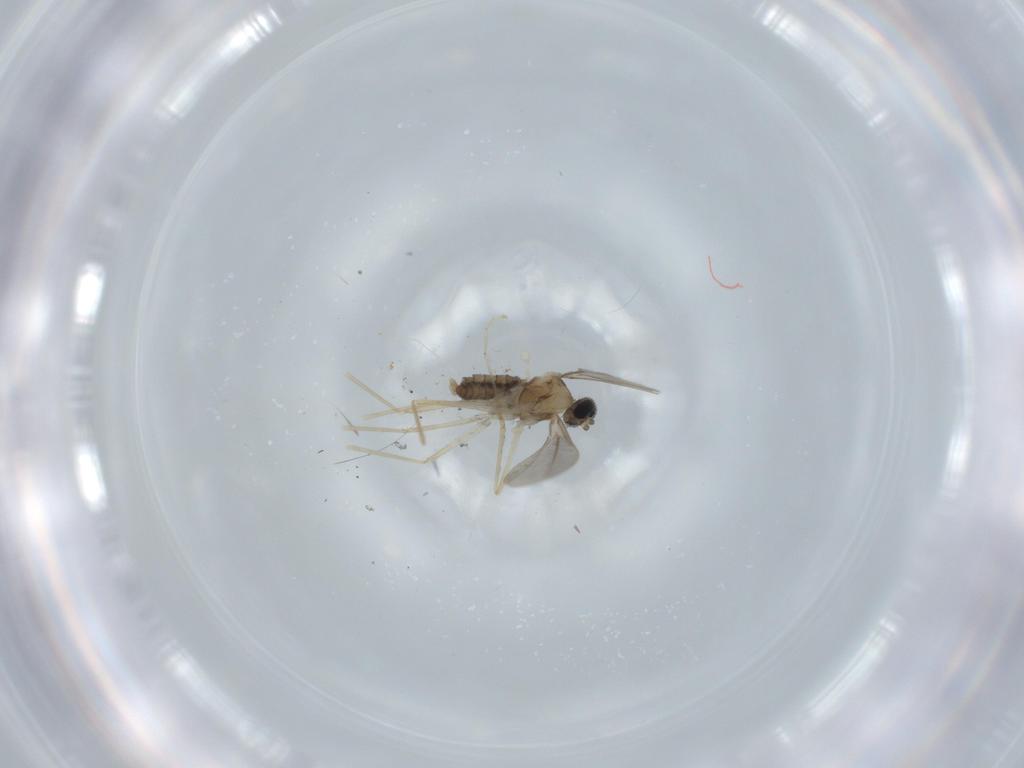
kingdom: Animalia
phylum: Arthropoda
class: Insecta
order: Diptera
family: Cecidomyiidae
